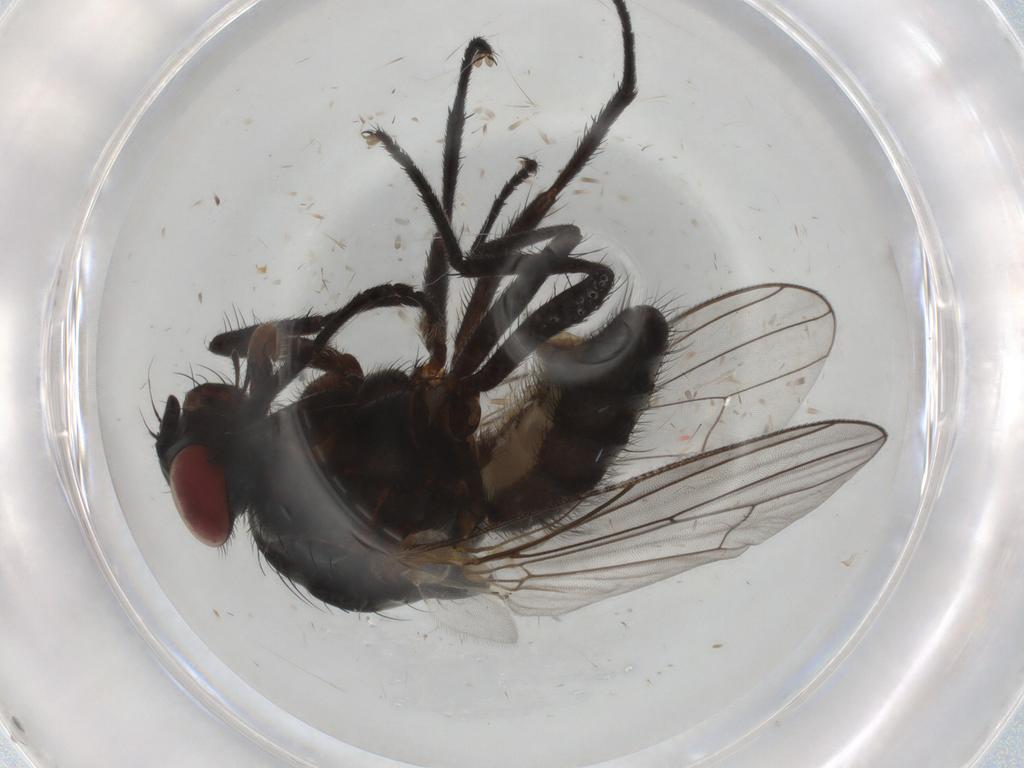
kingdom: Animalia
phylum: Arthropoda
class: Insecta
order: Diptera
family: Anthomyiidae
